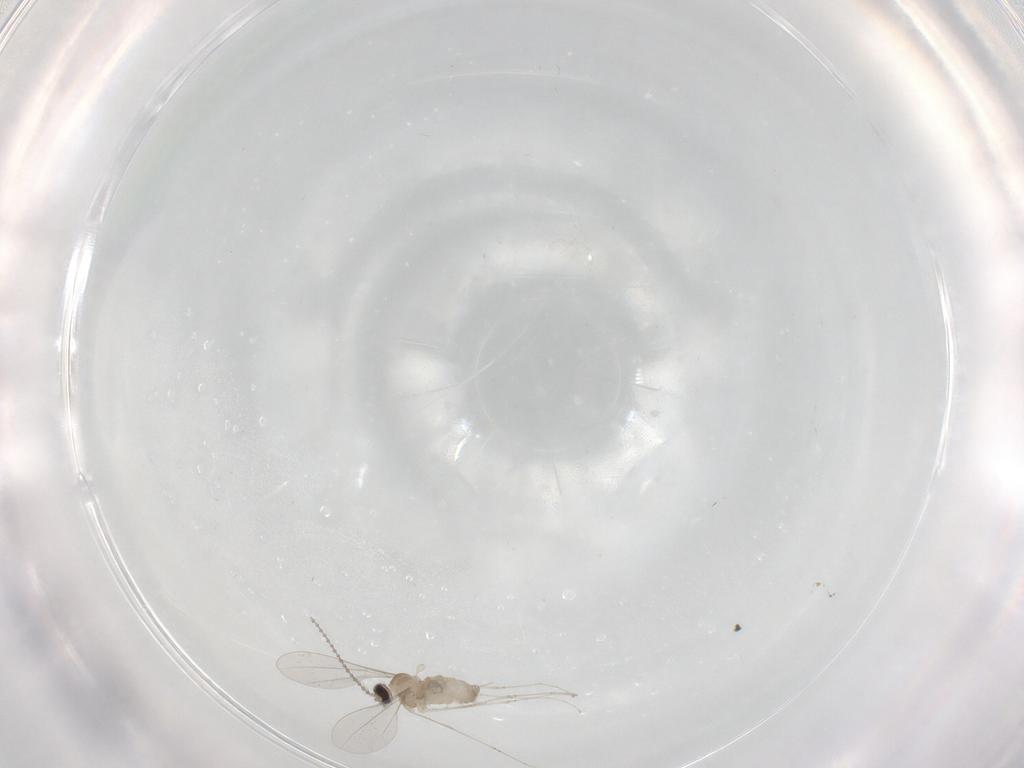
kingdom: Animalia
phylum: Arthropoda
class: Insecta
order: Diptera
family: Cecidomyiidae
